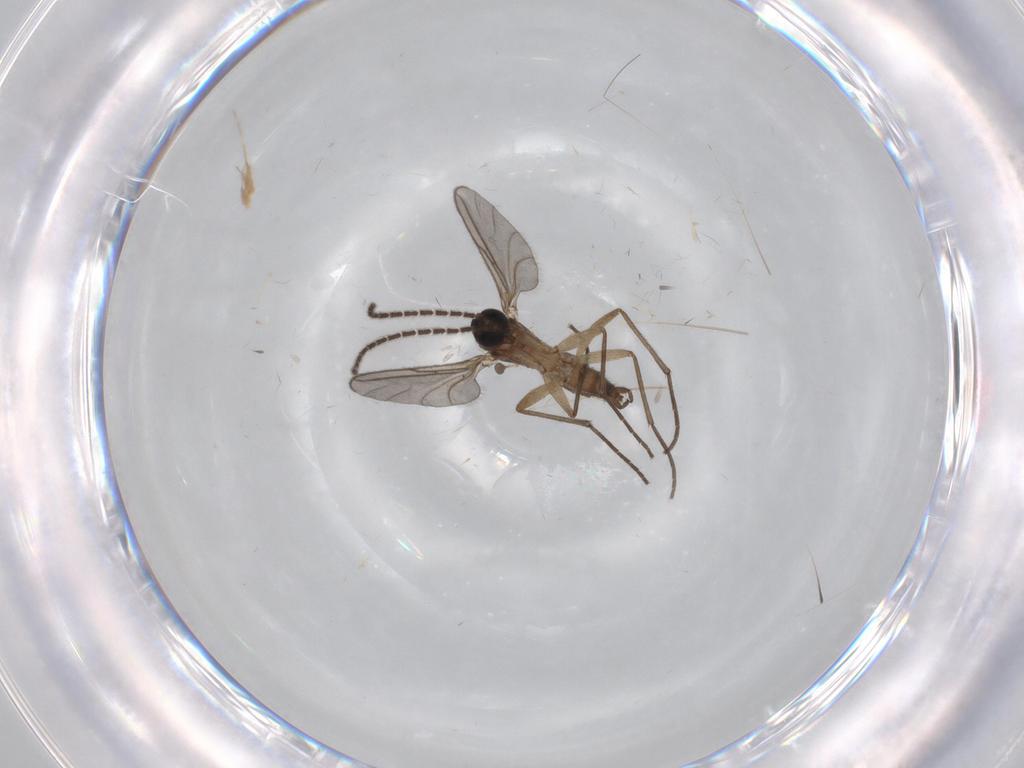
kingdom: Animalia
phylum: Arthropoda
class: Insecta
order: Diptera
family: Sciaridae
